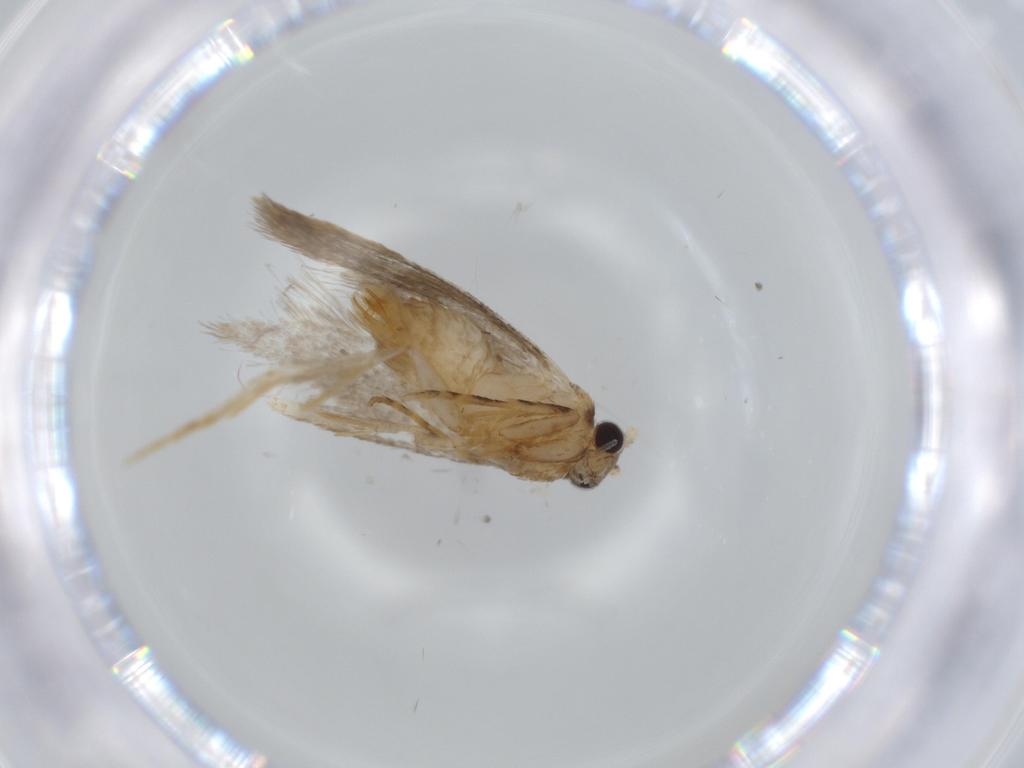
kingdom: Animalia
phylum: Arthropoda
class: Insecta
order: Lepidoptera
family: Tineidae
